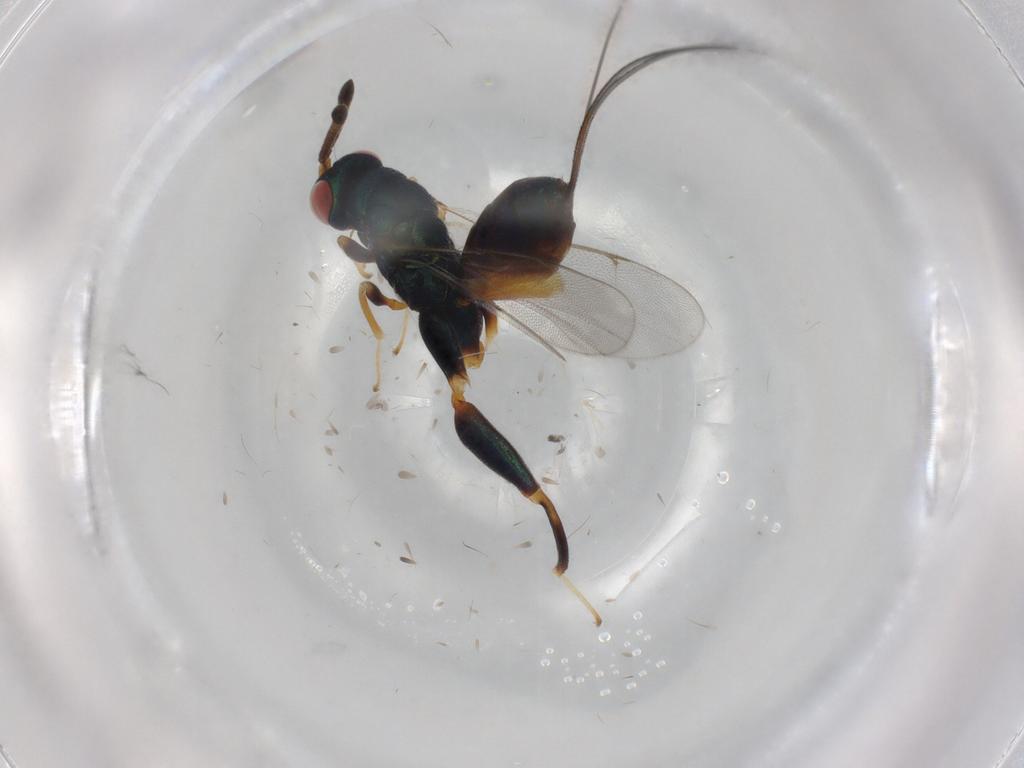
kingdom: Animalia
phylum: Arthropoda
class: Insecta
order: Hymenoptera
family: Torymidae
